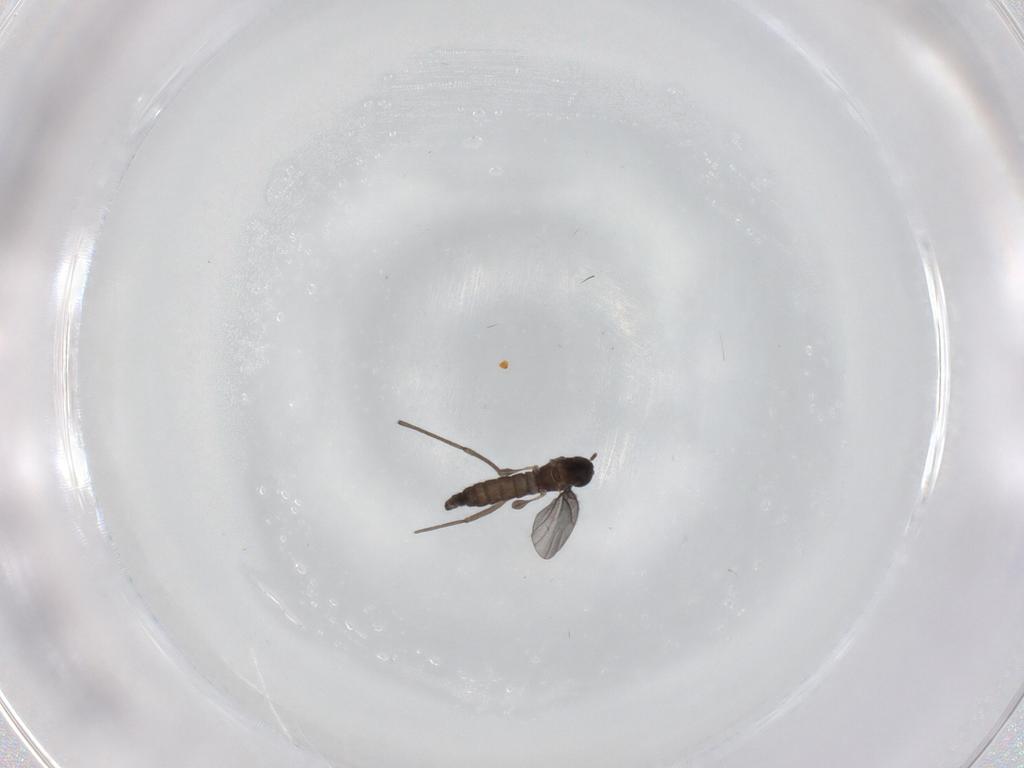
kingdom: Animalia
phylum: Arthropoda
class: Insecta
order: Diptera
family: Sciaridae
